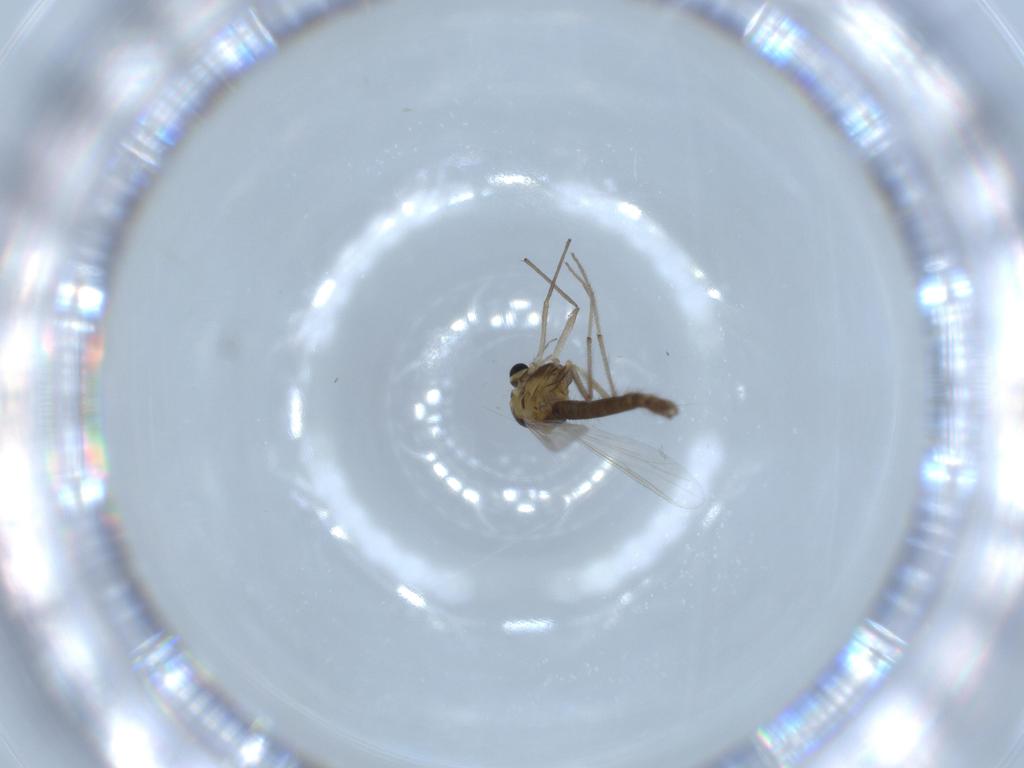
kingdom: Animalia
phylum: Arthropoda
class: Insecta
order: Diptera
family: Chironomidae
